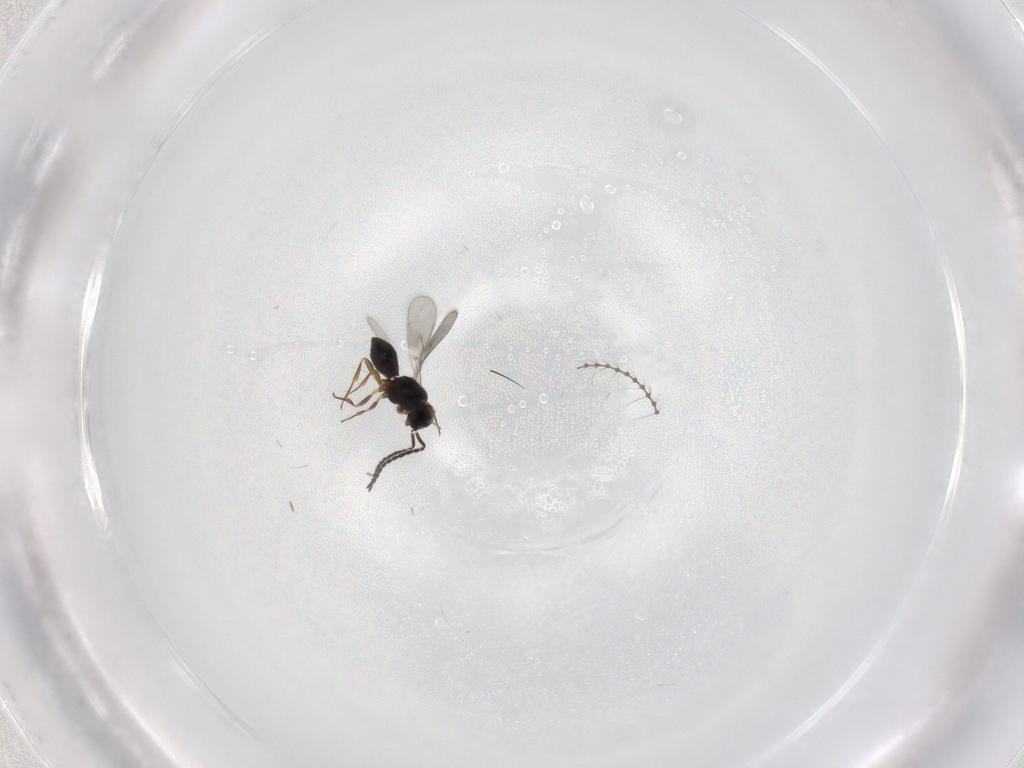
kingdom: Animalia
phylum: Arthropoda
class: Insecta
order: Hymenoptera
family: Scelionidae
